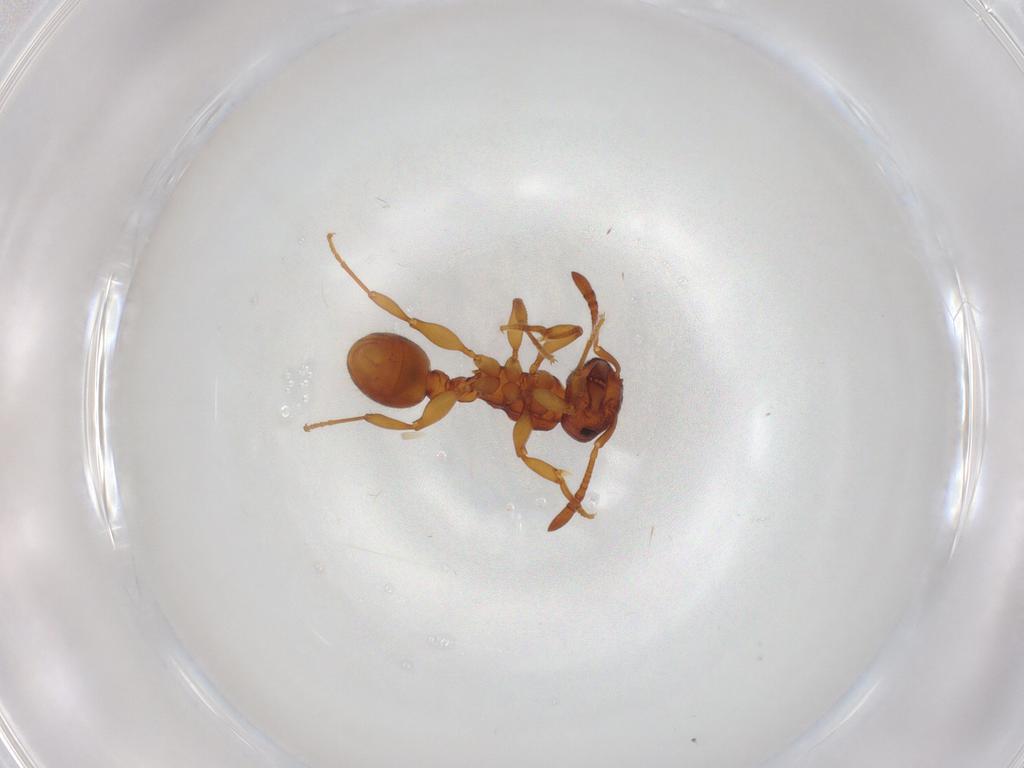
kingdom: Animalia
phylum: Arthropoda
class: Insecta
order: Hymenoptera
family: Formicidae
